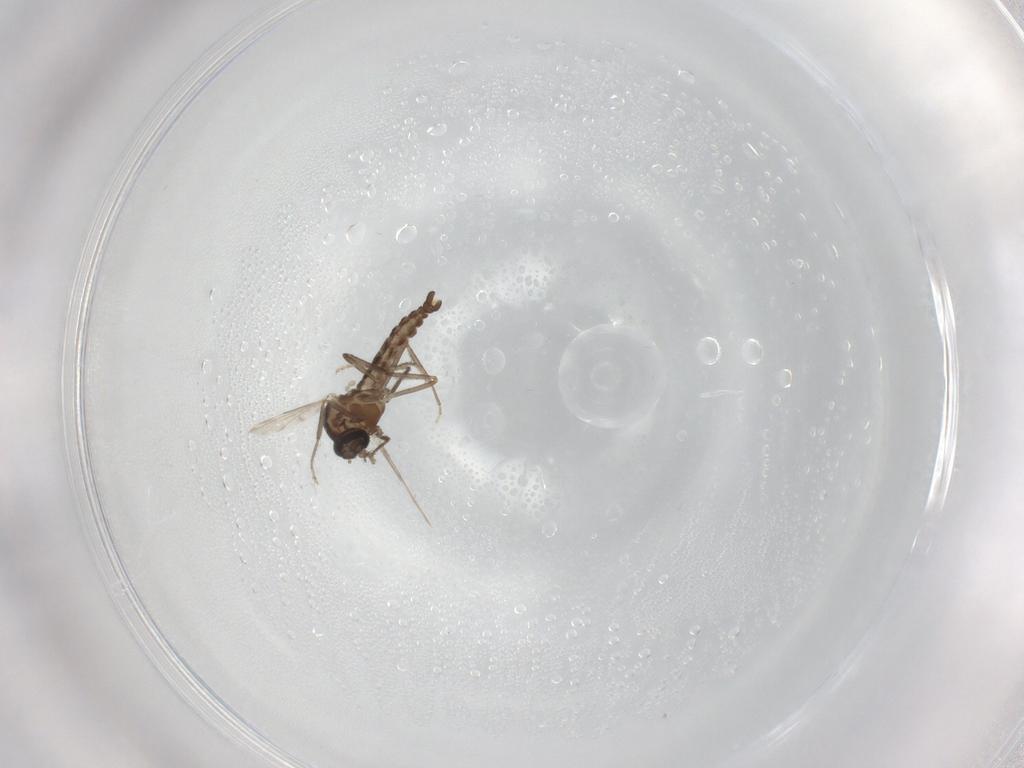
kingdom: Animalia
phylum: Arthropoda
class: Insecta
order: Diptera
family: Ceratopogonidae
